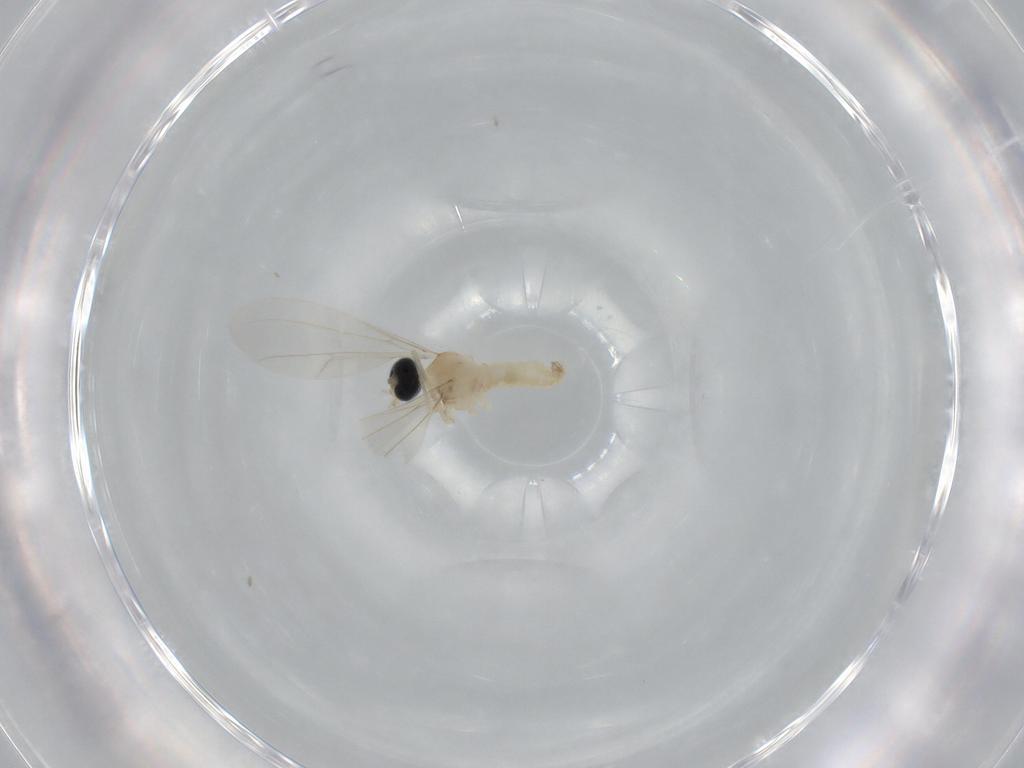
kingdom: Animalia
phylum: Arthropoda
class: Insecta
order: Diptera
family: Cecidomyiidae
